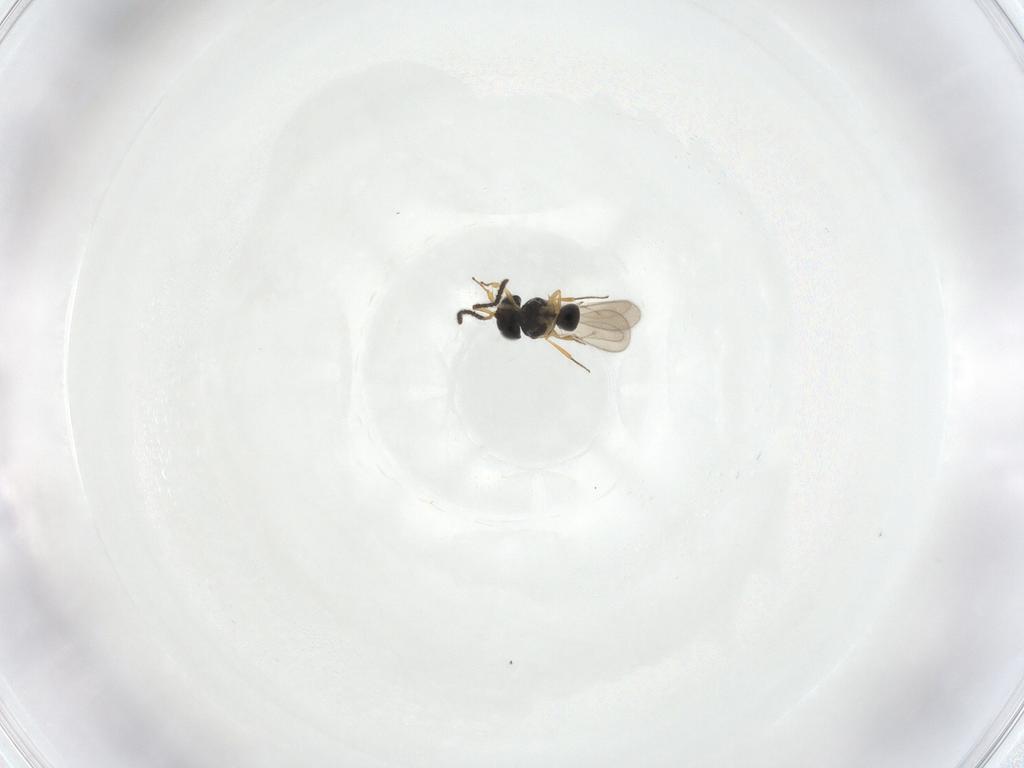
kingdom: Animalia
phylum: Arthropoda
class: Insecta
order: Hymenoptera
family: Scelionidae
